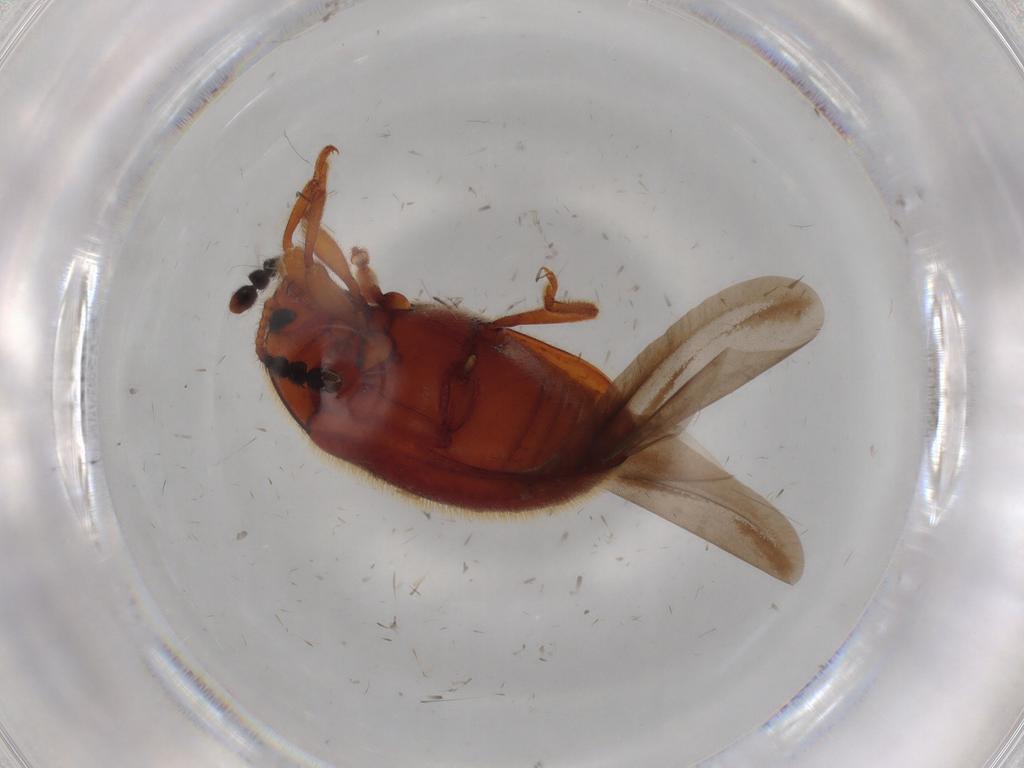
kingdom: Animalia
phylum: Arthropoda
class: Insecta
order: Coleoptera
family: Endomychidae
